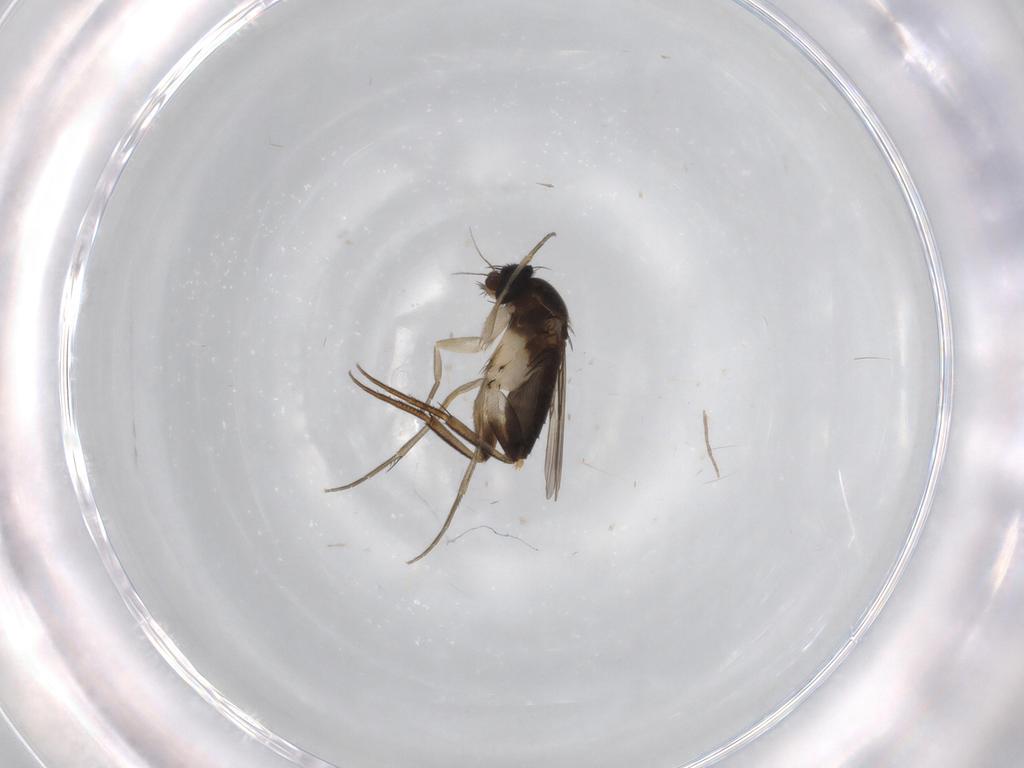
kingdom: Animalia
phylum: Arthropoda
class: Insecta
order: Diptera
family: Phoridae
